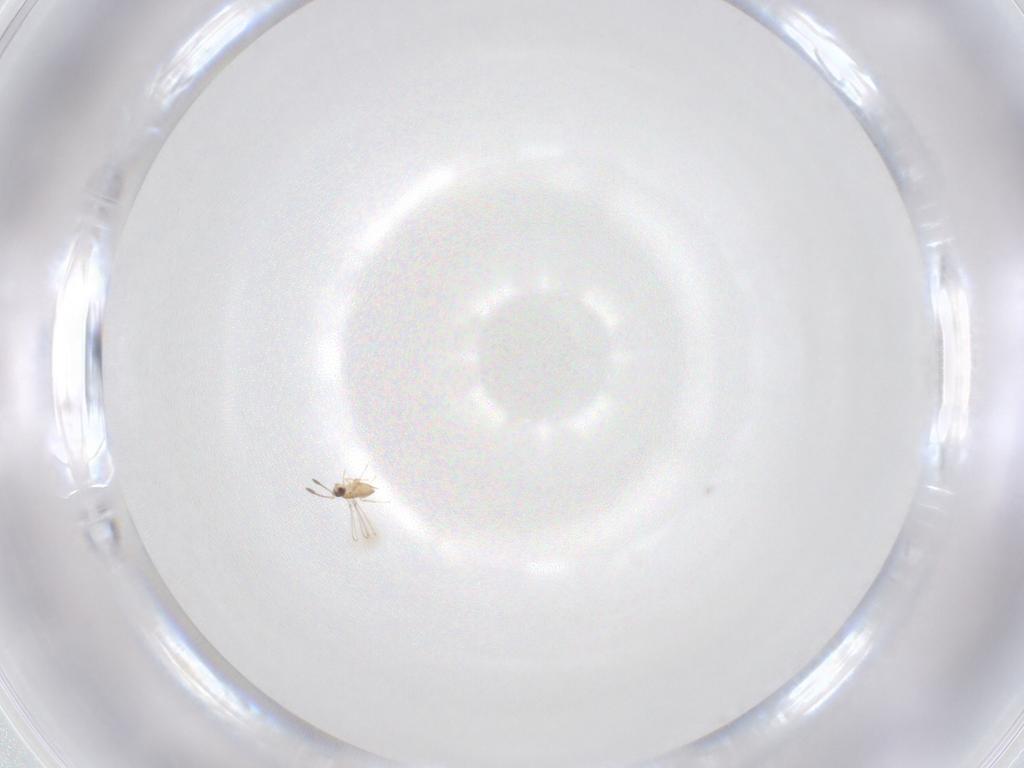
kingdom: Animalia
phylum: Arthropoda
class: Insecta
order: Hymenoptera
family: Mymaridae
